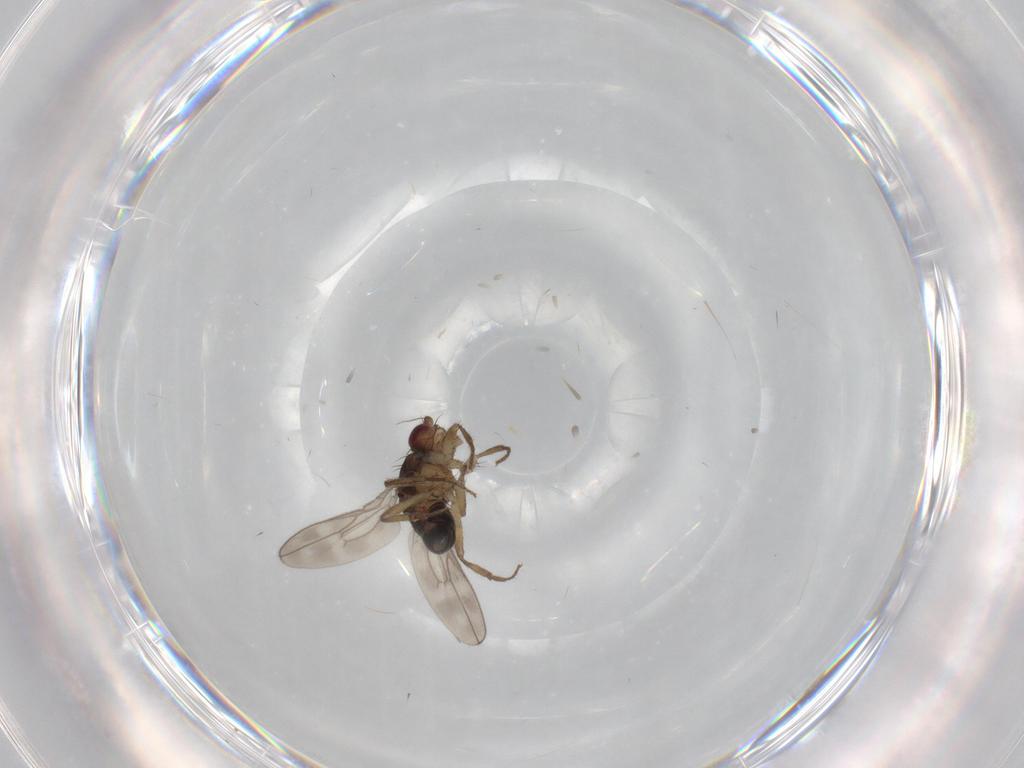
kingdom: Animalia
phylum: Arthropoda
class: Insecta
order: Diptera
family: Sphaeroceridae
